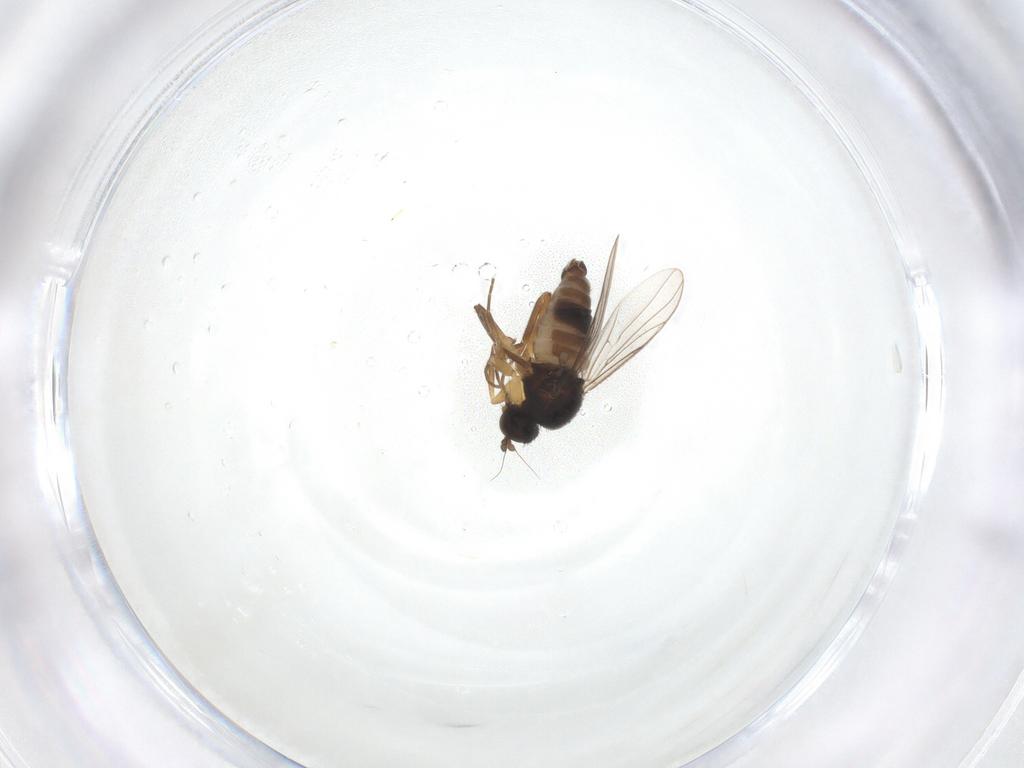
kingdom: Animalia
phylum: Arthropoda
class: Insecta
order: Diptera
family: Hybotidae
